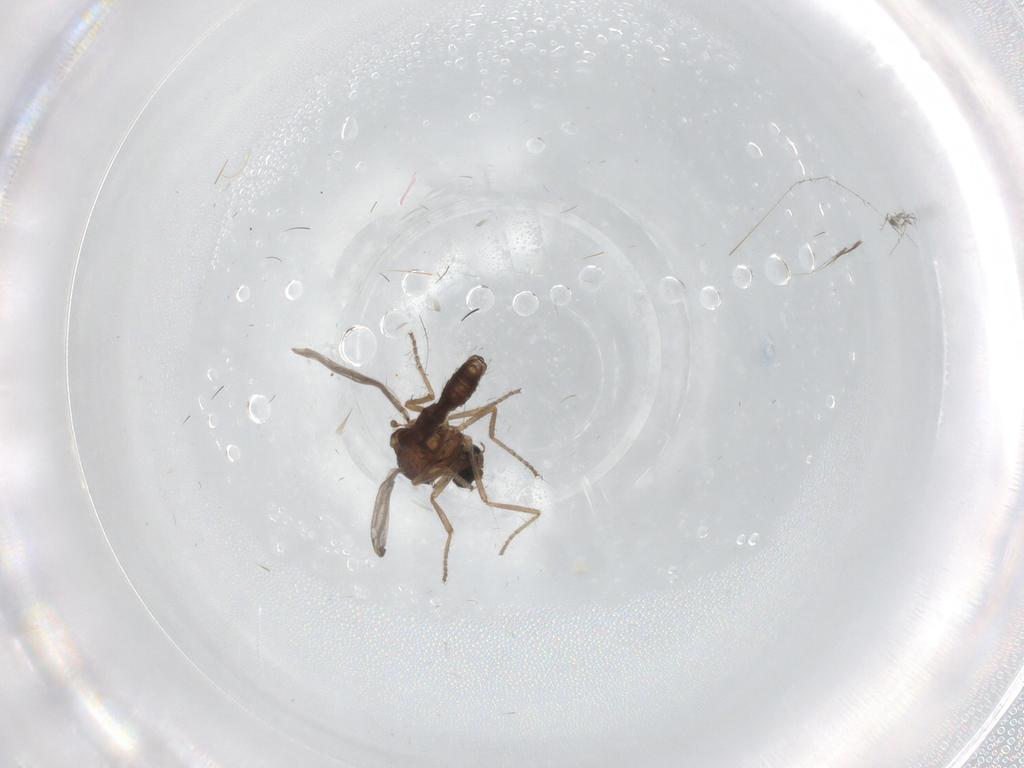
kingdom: Animalia
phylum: Arthropoda
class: Insecta
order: Diptera
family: Ceratopogonidae
